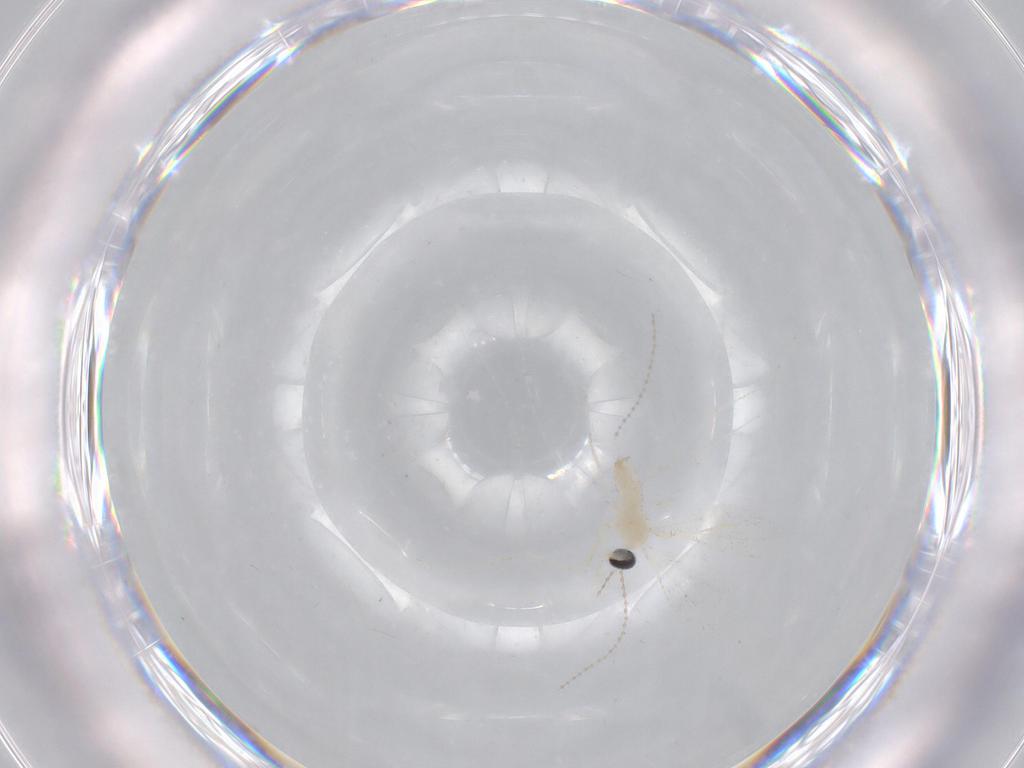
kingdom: Animalia
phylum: Arthropoda
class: Insecta
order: Diptera
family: Cecidomyiidae
